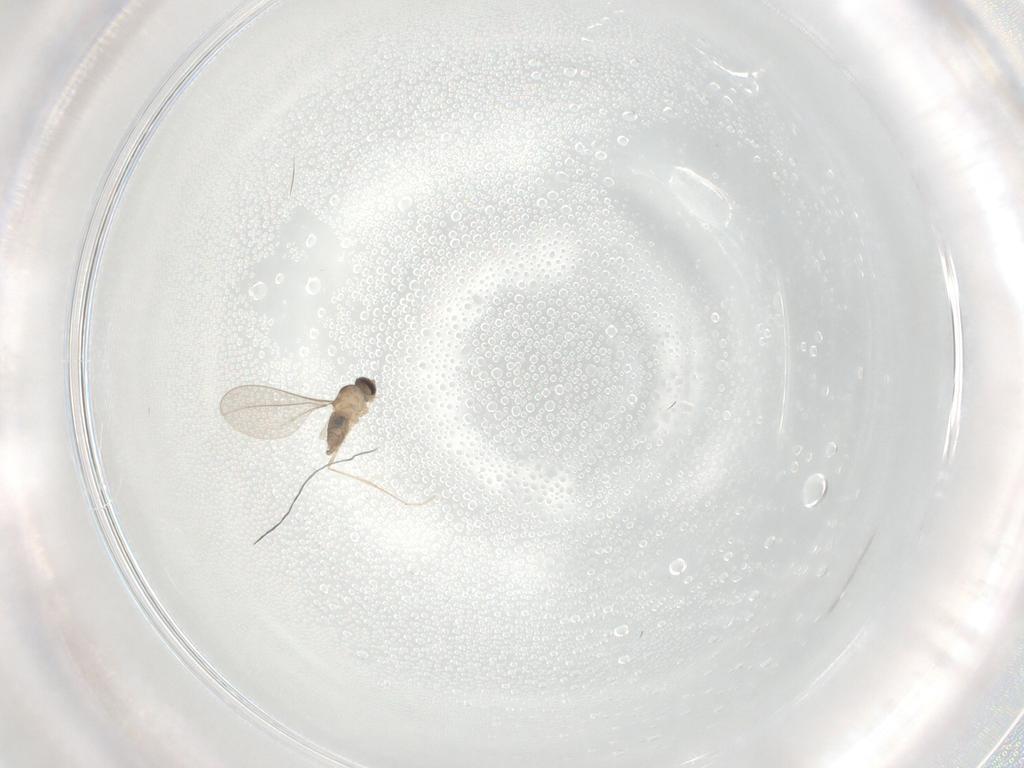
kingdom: Animalia
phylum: Arthropoda
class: Insecta
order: Diptera
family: Cecidomyiidae
